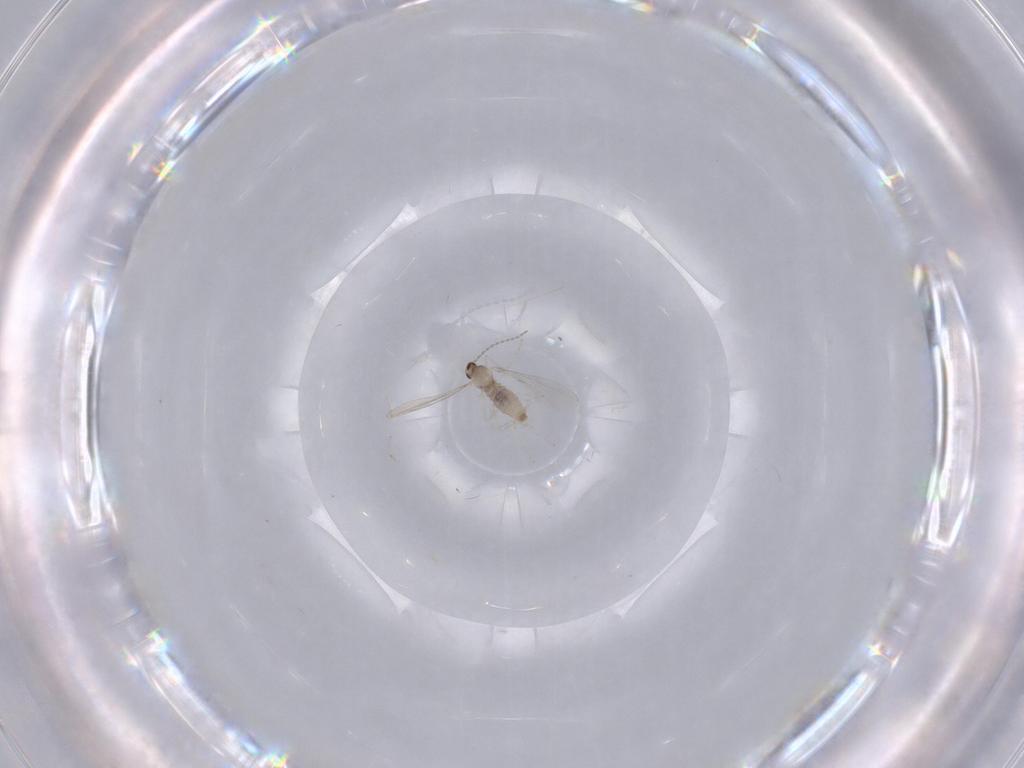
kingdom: Animalia
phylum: Arthropoda
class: Insecta
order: Diptera
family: Cecidomyiidae
